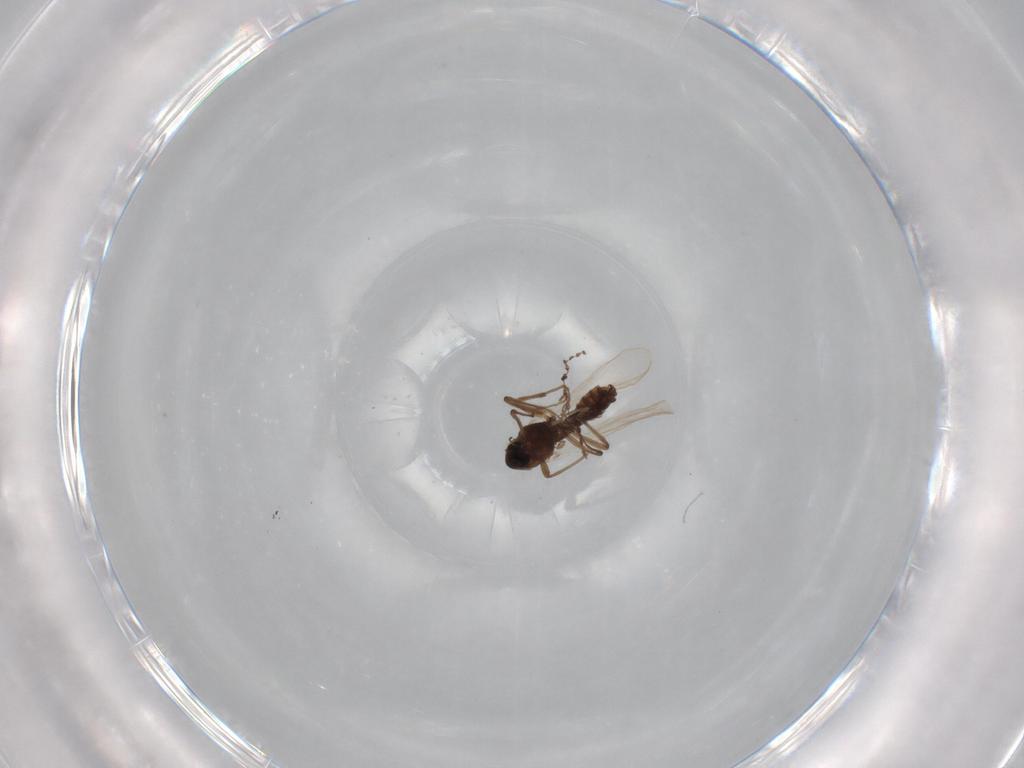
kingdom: Animalia
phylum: Arthropoda
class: Insecta
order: Diptera
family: Chironomidae
